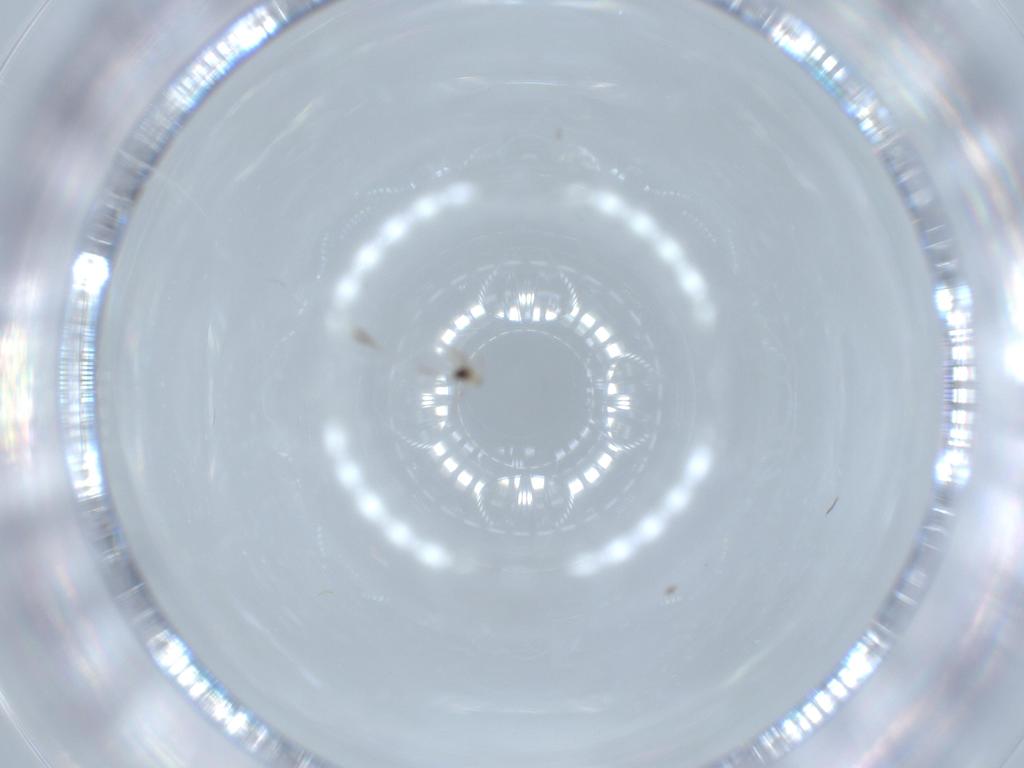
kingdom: Animalia
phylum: Arthropoda
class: Insecta
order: Hymenoptera
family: Mymaridae
